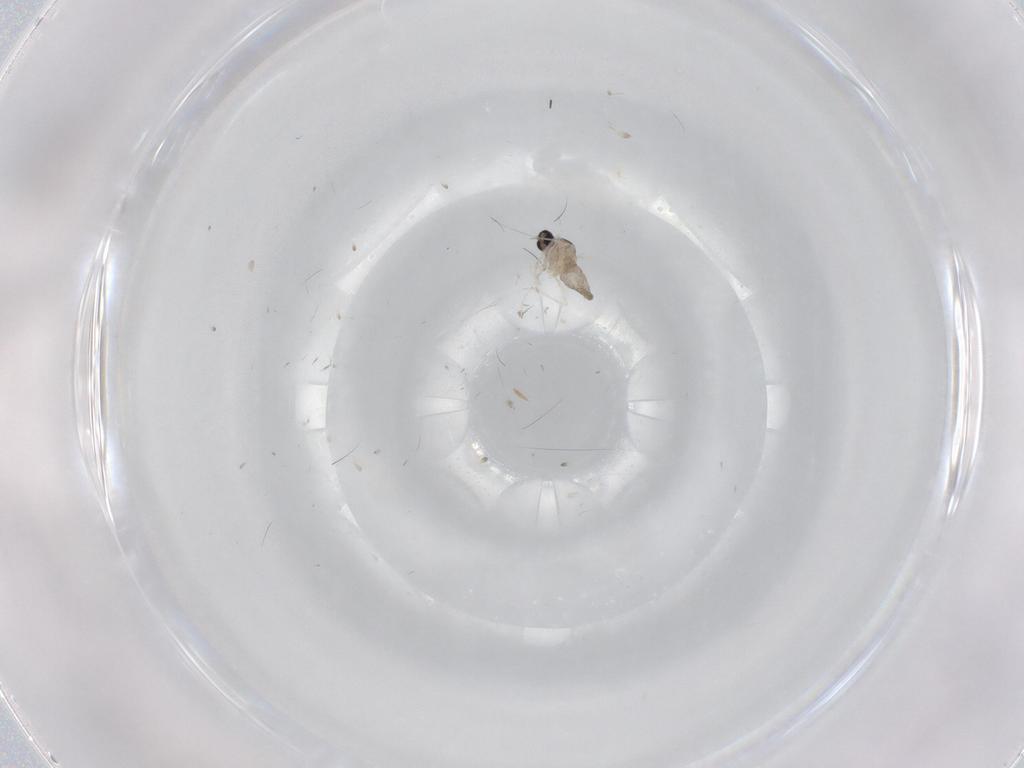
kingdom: Animalia
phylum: Arthropoda
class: Insecta
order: Diptera
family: Cecidomyiidae
